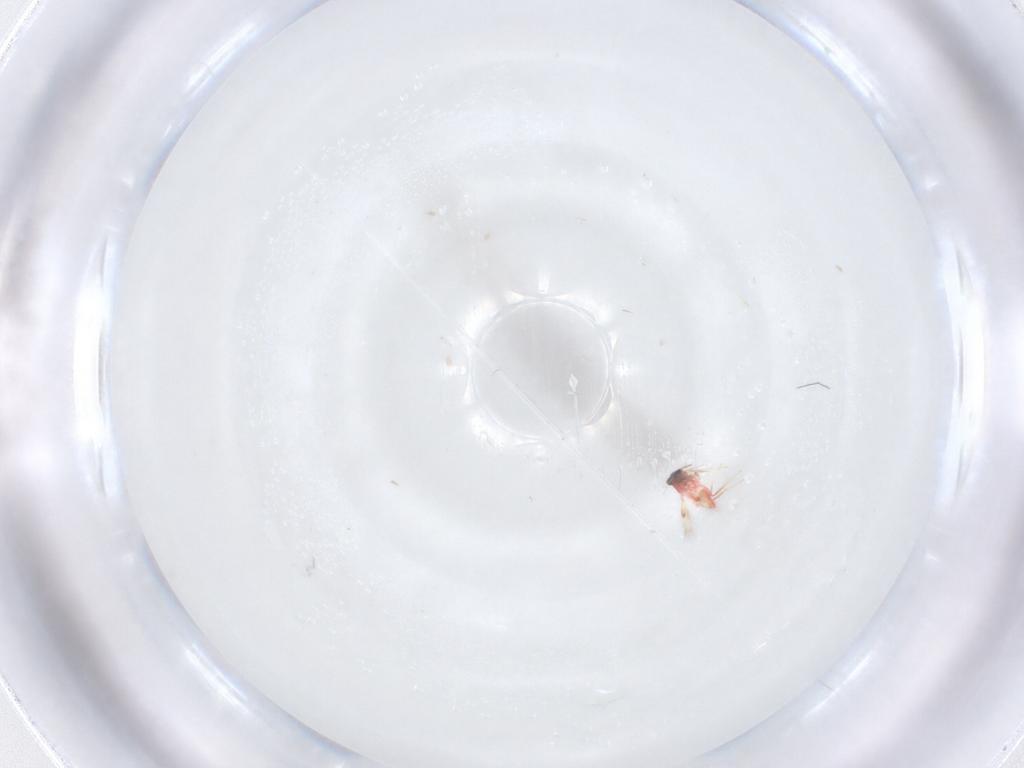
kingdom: Animalia
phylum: Arthropoda
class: Insecta
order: Hymenoptera
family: Trichogrammatidae
